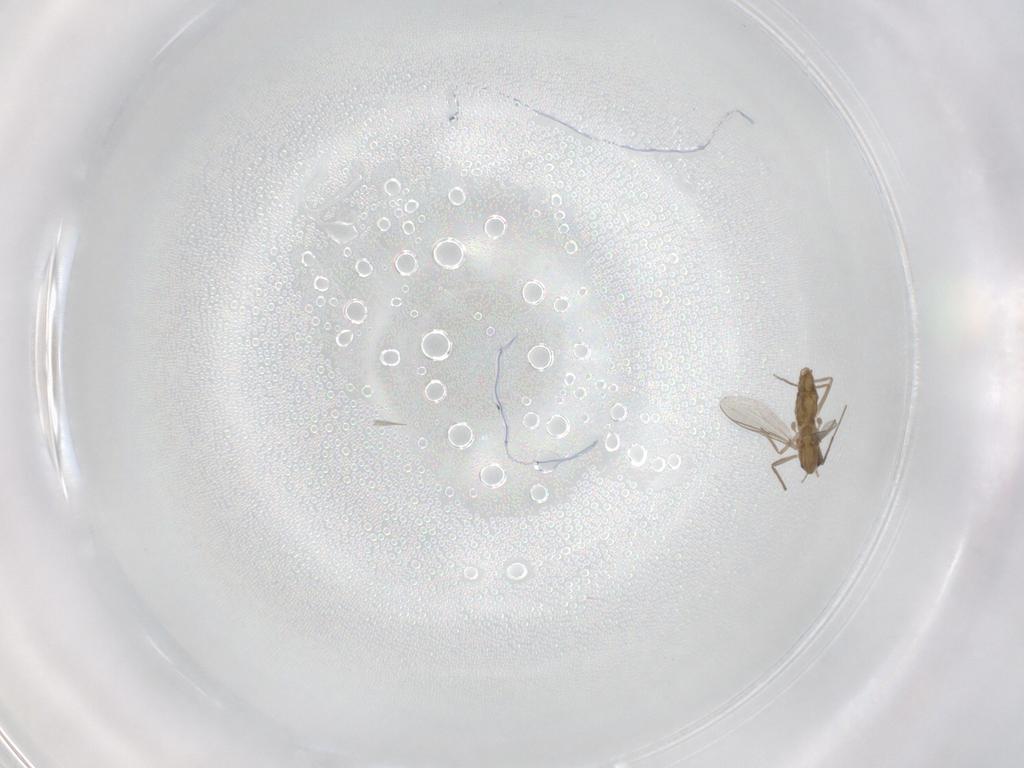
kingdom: Animalia
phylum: Arthropoda
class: Insecta
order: Diptera
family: Chironomidae
